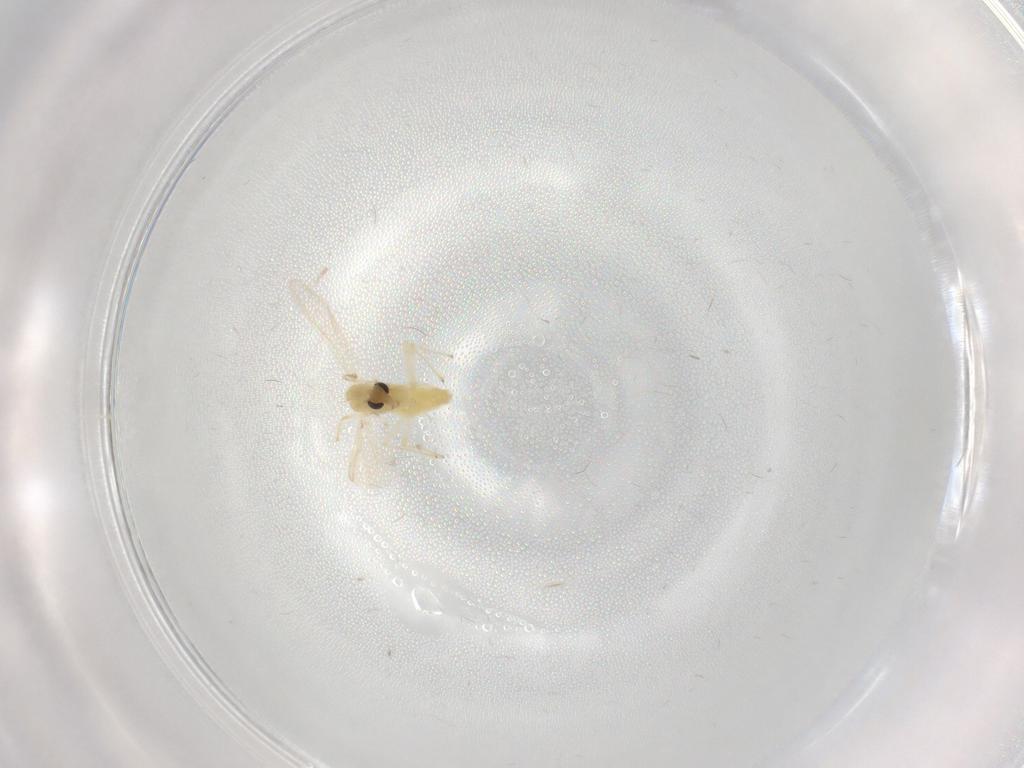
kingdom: Animalia
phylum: Arthropoda
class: Insecta
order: Diptera
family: Chironomidae
